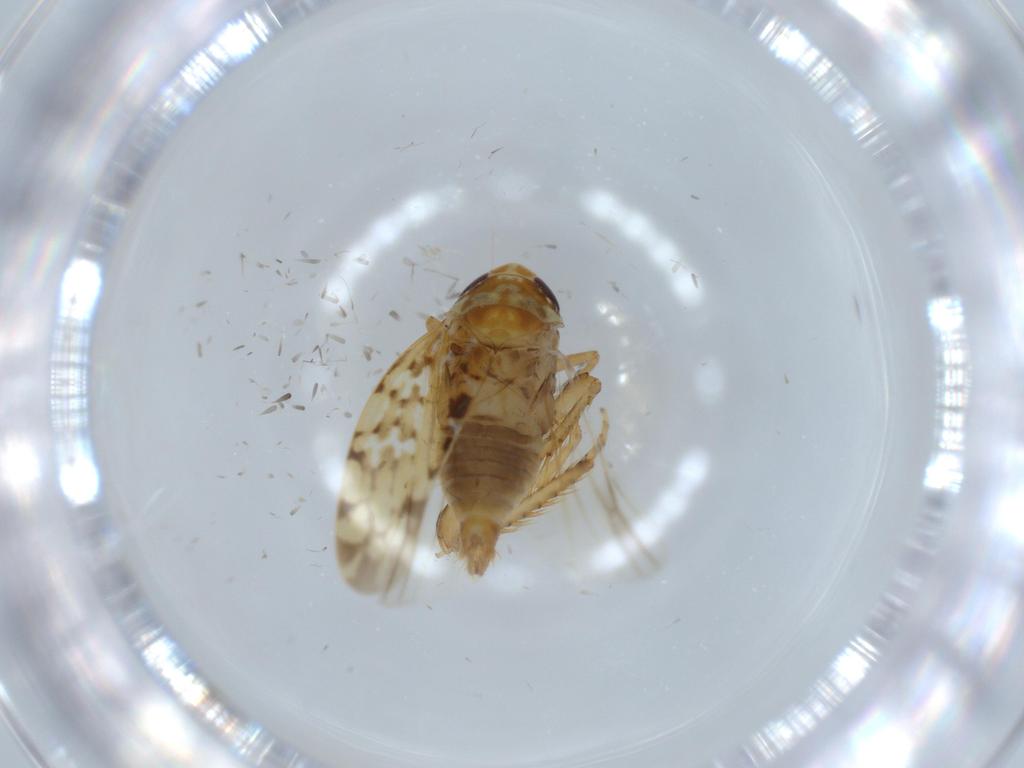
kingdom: Animalia
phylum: Arthropoda
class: Insecta
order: Hemiptera
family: Cicadellidae
